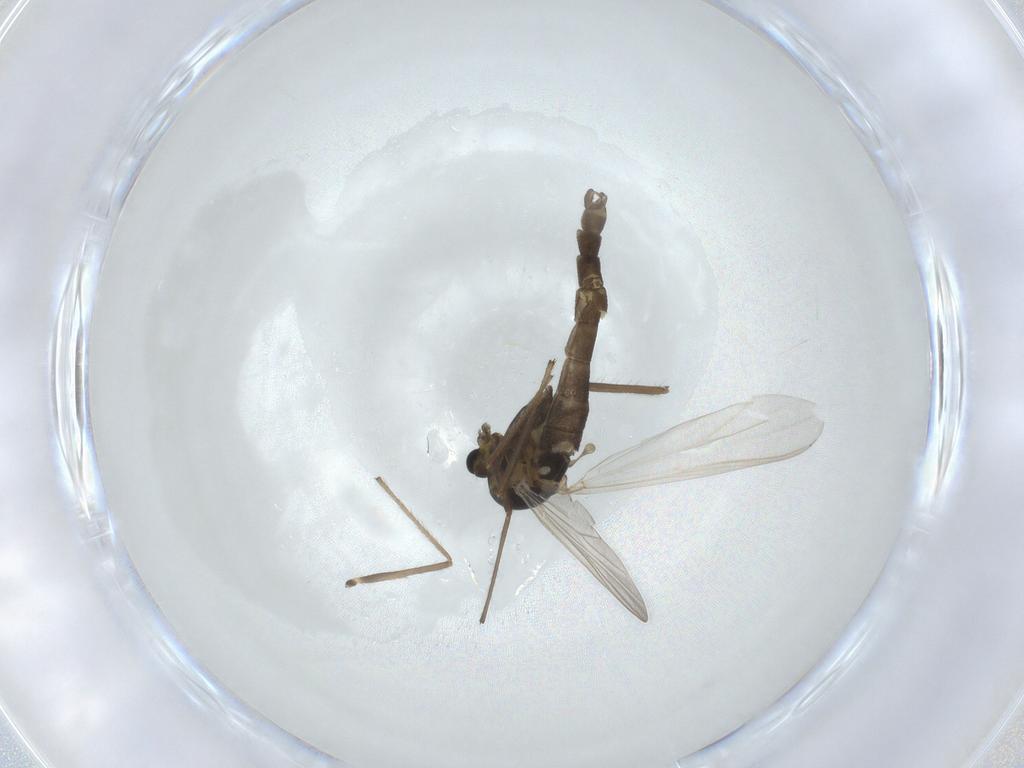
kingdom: Animalia
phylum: Arthropoda
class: Insecta
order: Diptera
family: Chironomidae
